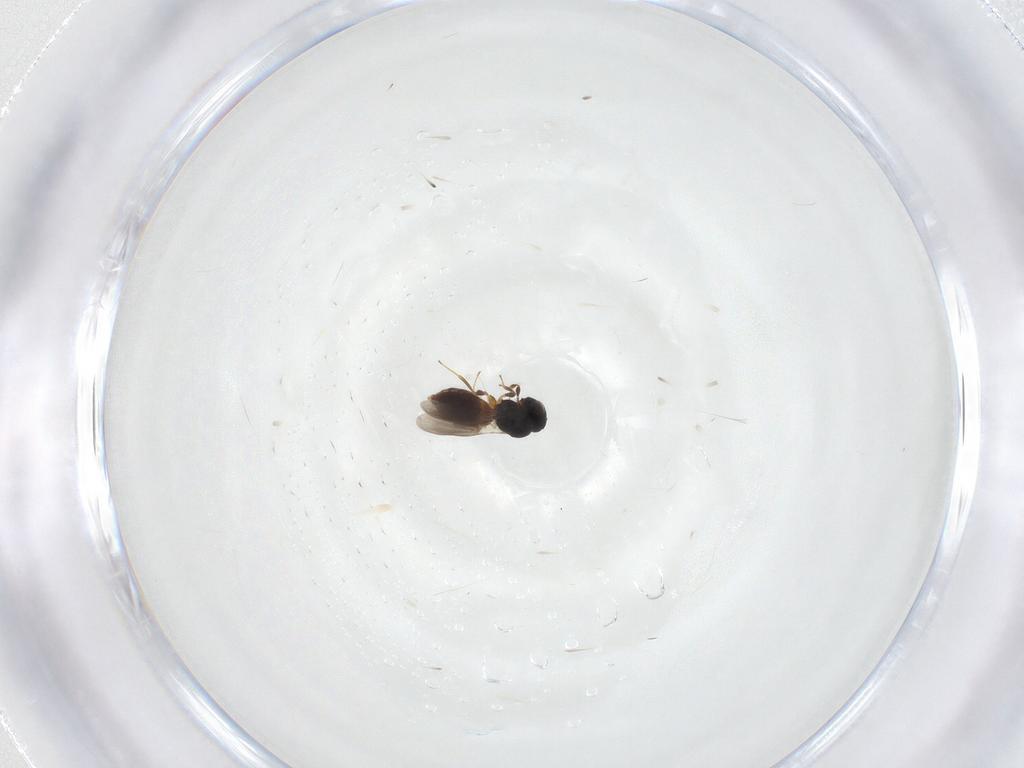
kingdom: Animalia
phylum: Arthropoda
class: Insecta
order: Hymenoptera
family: Platygastridae
